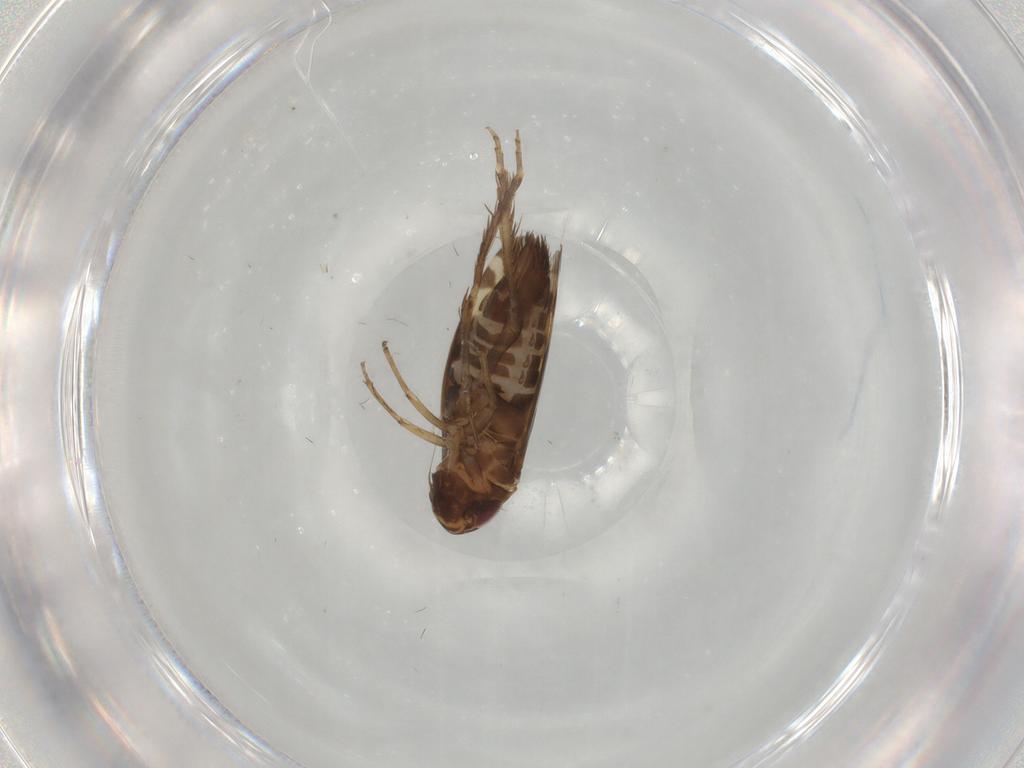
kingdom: Animalia
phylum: Arthropoda
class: Insecta
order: Hemiptera
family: Cicadellidae
